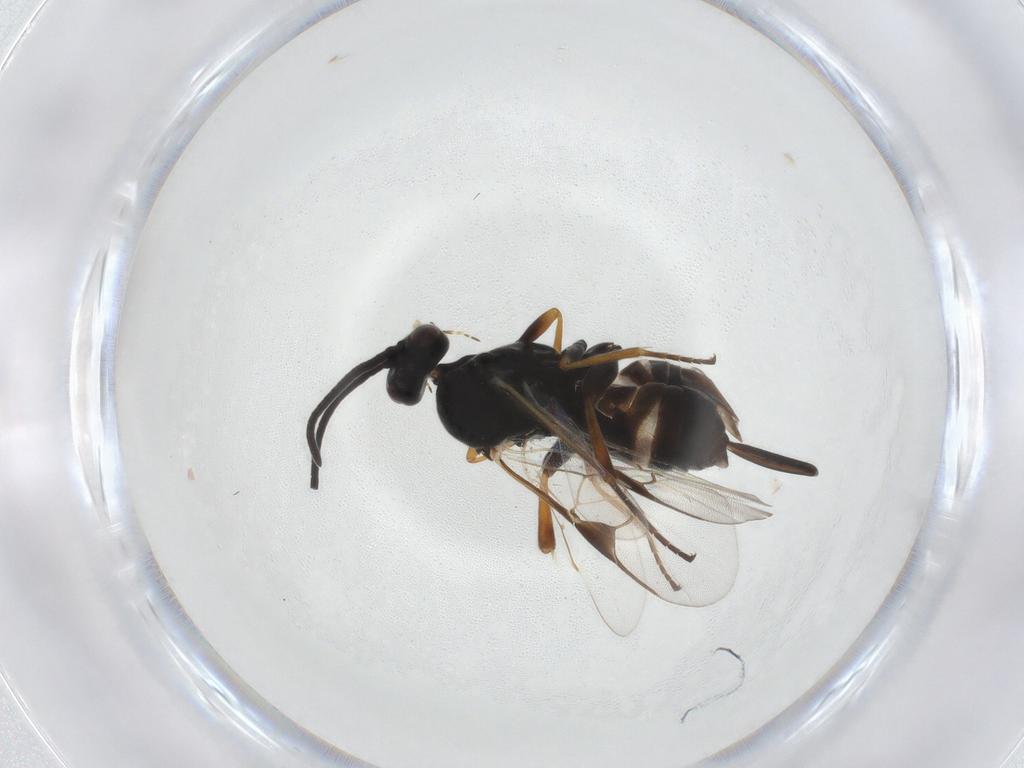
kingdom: Animalia
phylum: Arthropoda
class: Insecta
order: Hymenoptera
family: Braconidae
